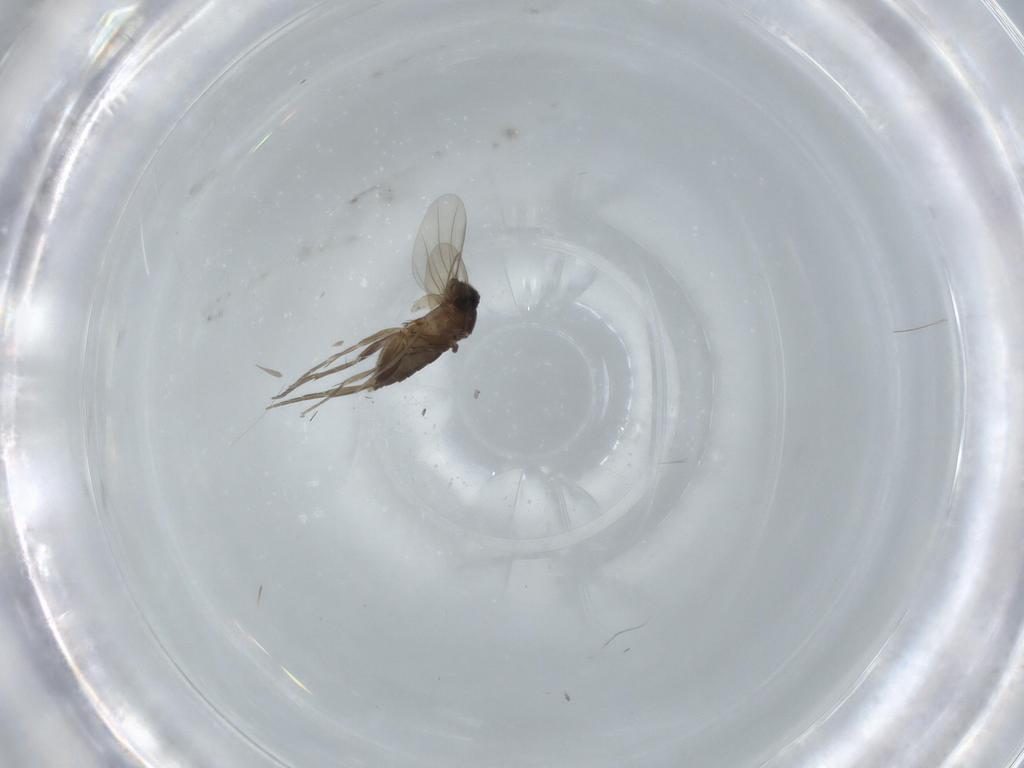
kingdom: Animalia
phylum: Arthropoda
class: Insecta
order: Diptera
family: Phoridae
